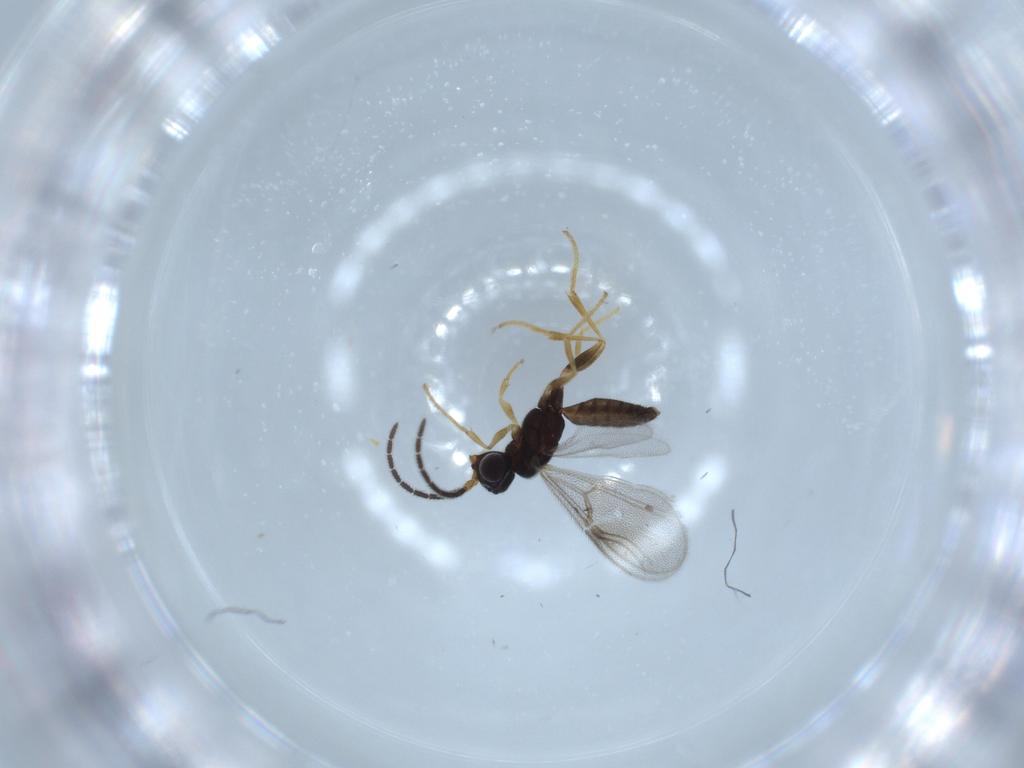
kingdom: Animalia
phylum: Arthropoda
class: Insecta
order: Hymenoptera
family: Dryinidae
